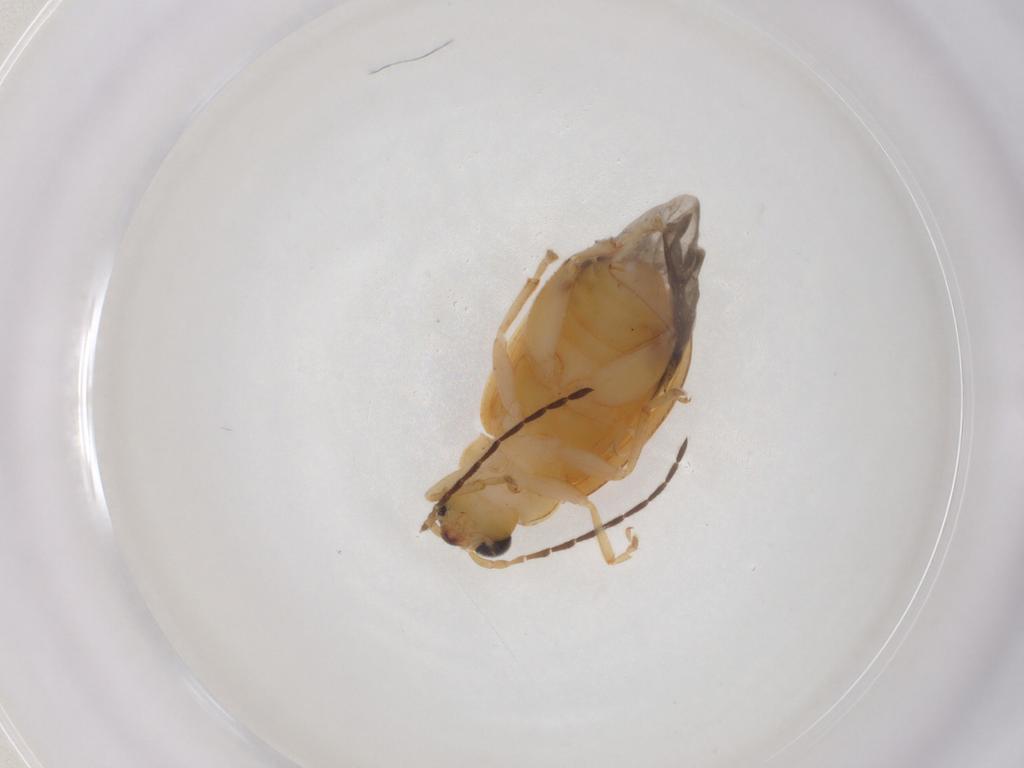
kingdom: Animalia
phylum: Arthropoda
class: Insecta
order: Coleoptera
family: Chrysomelidae
